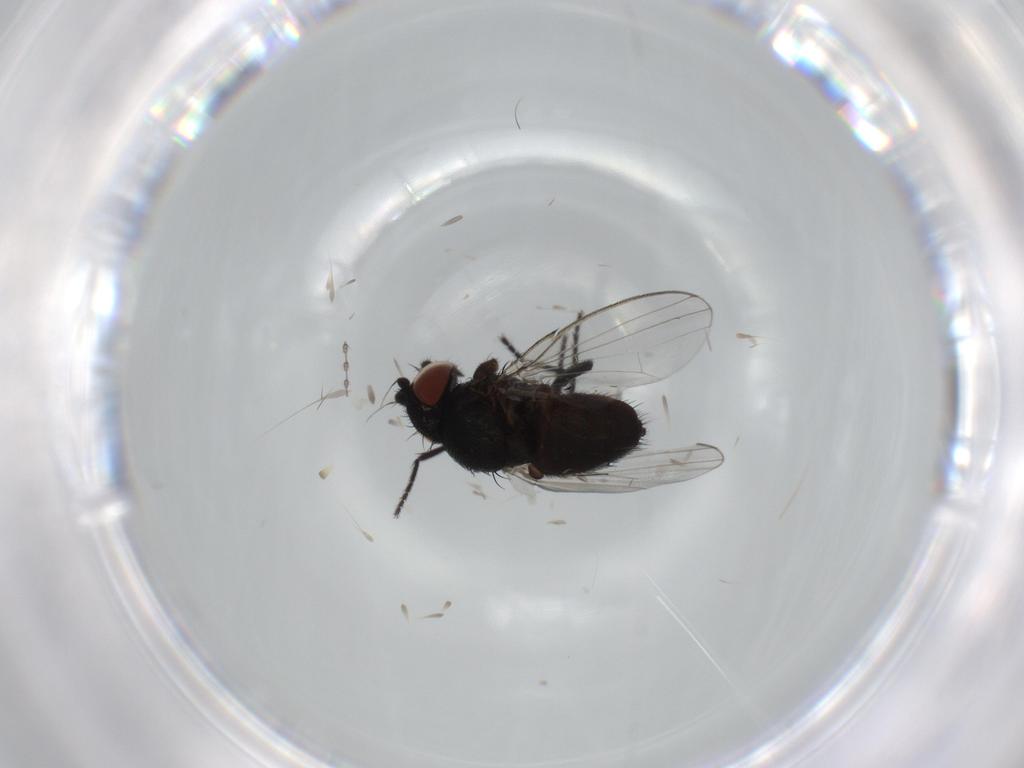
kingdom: Animalia
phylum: Arthropoda
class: Insecta
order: Diptera
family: Milichiidae
